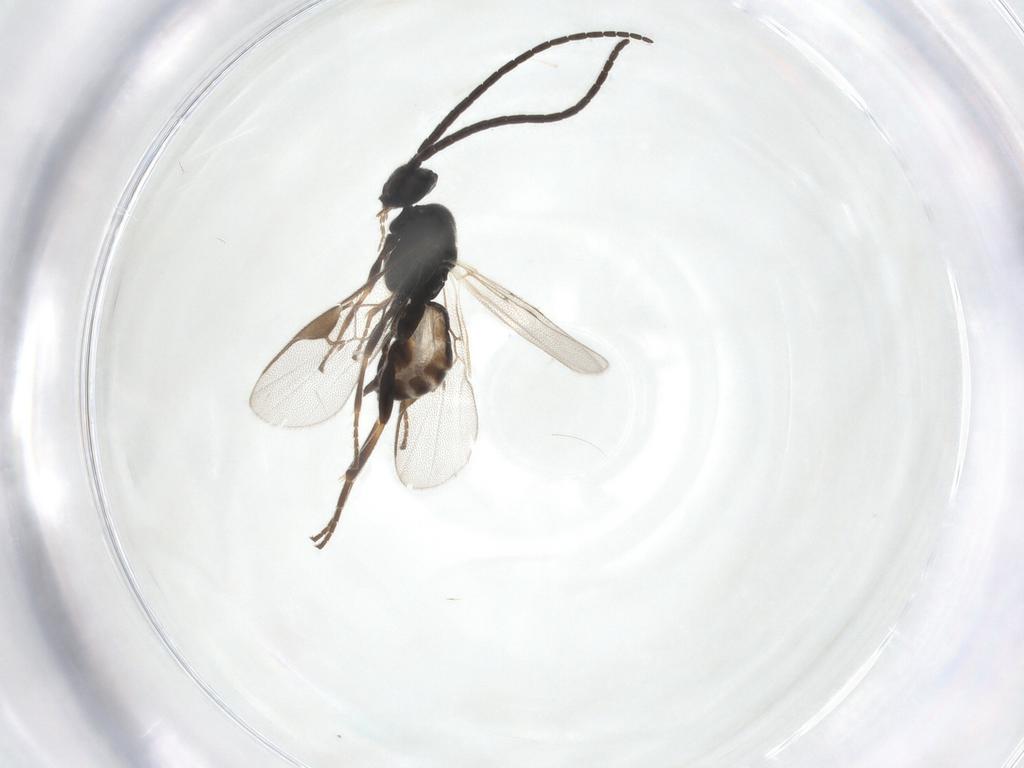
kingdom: Animalia
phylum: Arthropoda
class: Insecta
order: Hymenoptera
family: Braconidae
